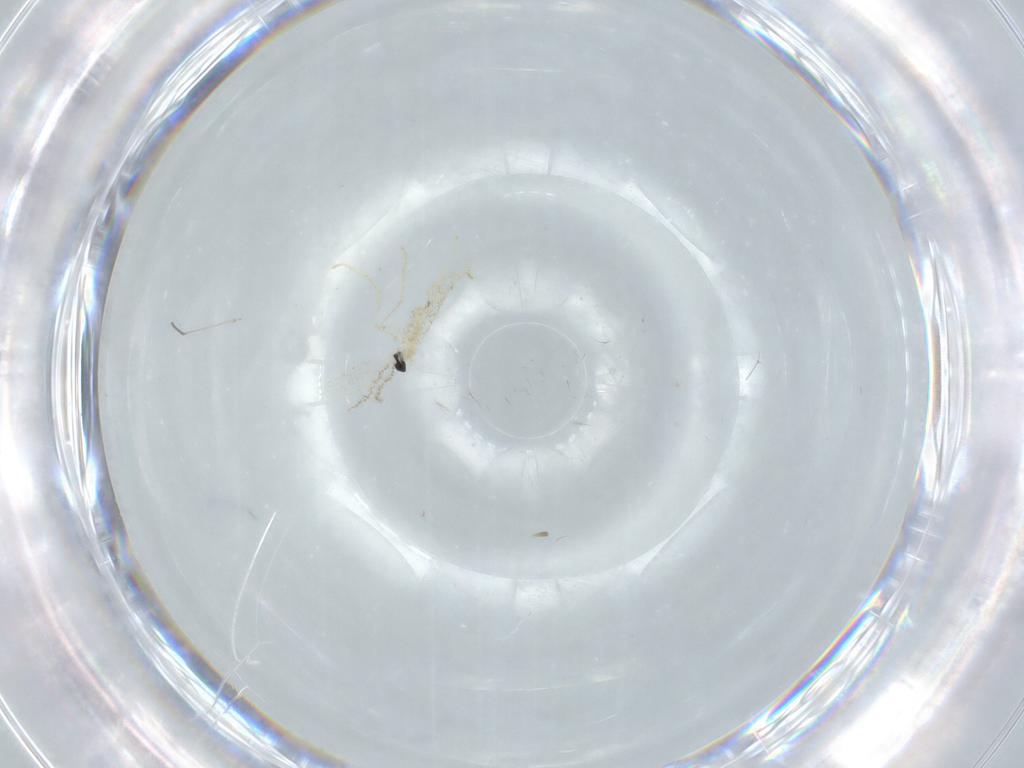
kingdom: Animalia
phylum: Arthropoda
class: Insecta
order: Diptera
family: Cecidomyiidae
